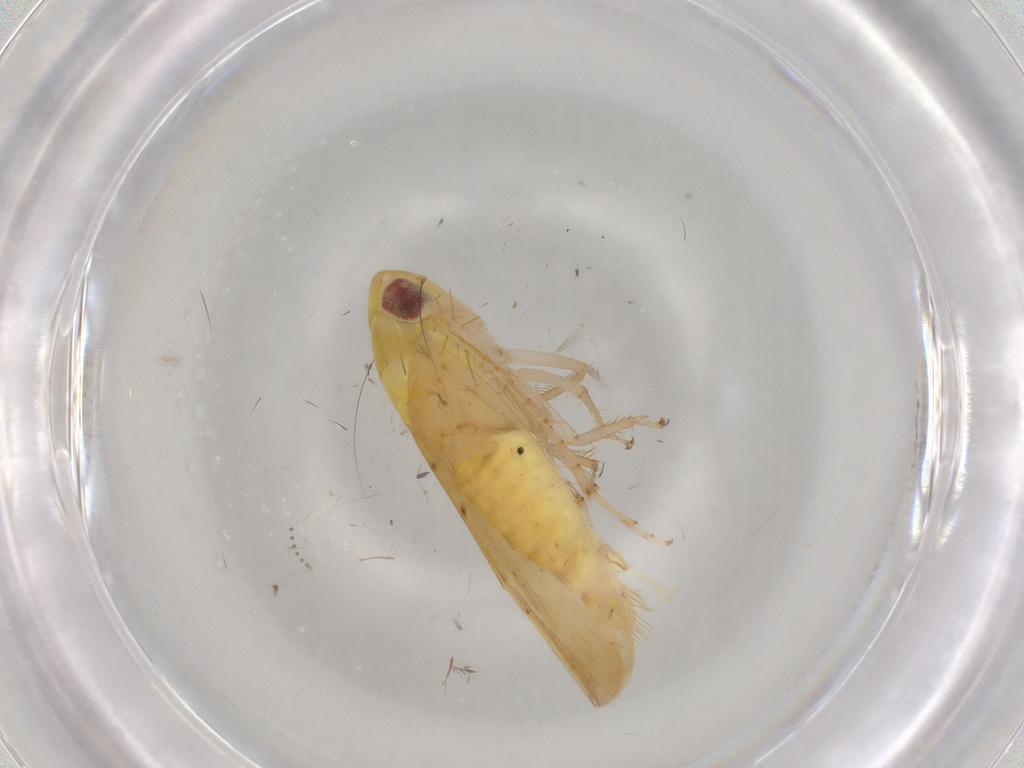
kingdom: Animalia
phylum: Arthropoda
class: Insecta
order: Hemiptera
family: Cicadellidae
